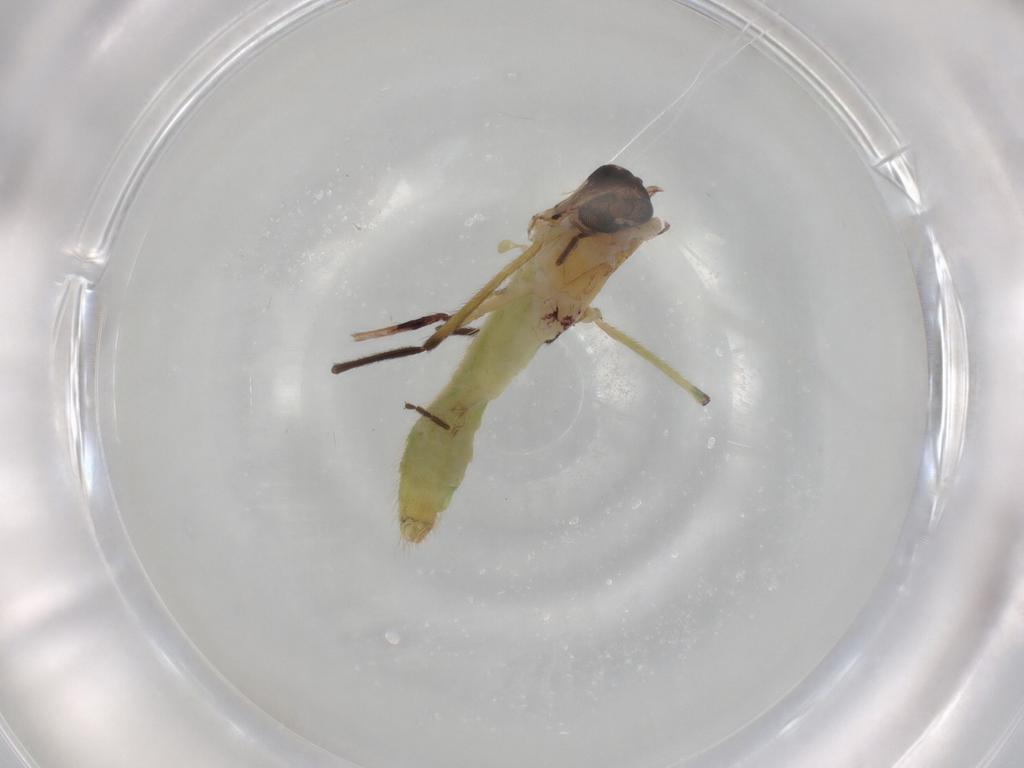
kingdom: Animalia
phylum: Arthropoda
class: Insecta
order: Diptera
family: Chironomidae
